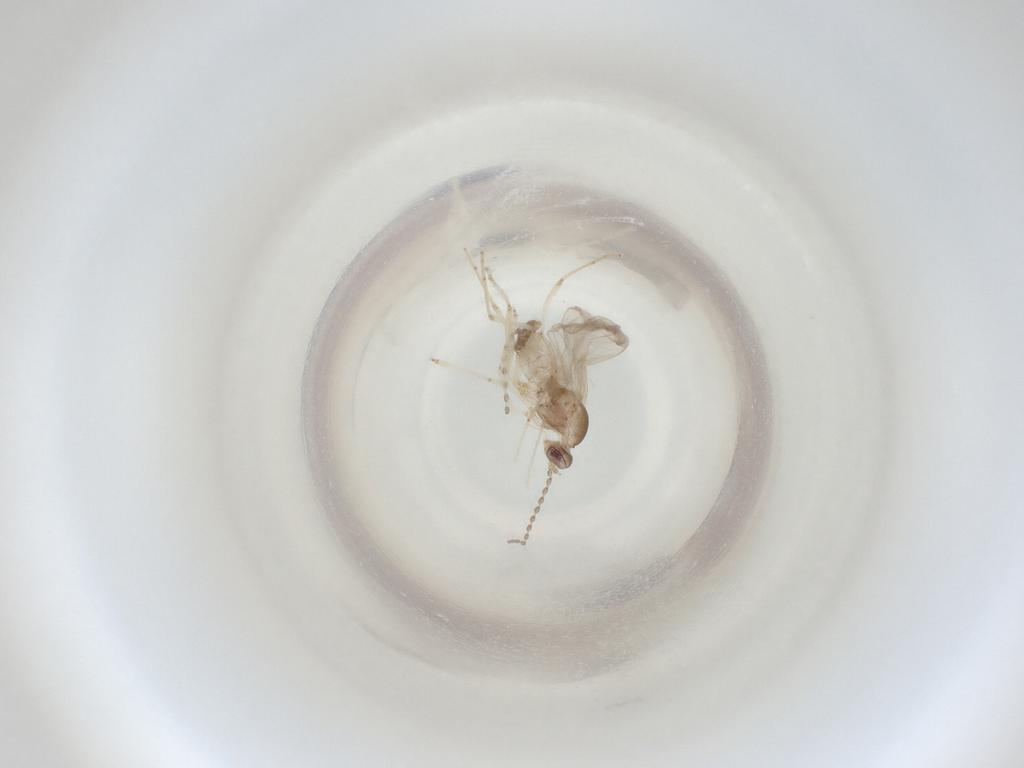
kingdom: Animalia
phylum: Arthropoda
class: Insecta
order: Diptera
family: Cecidomyiidae
